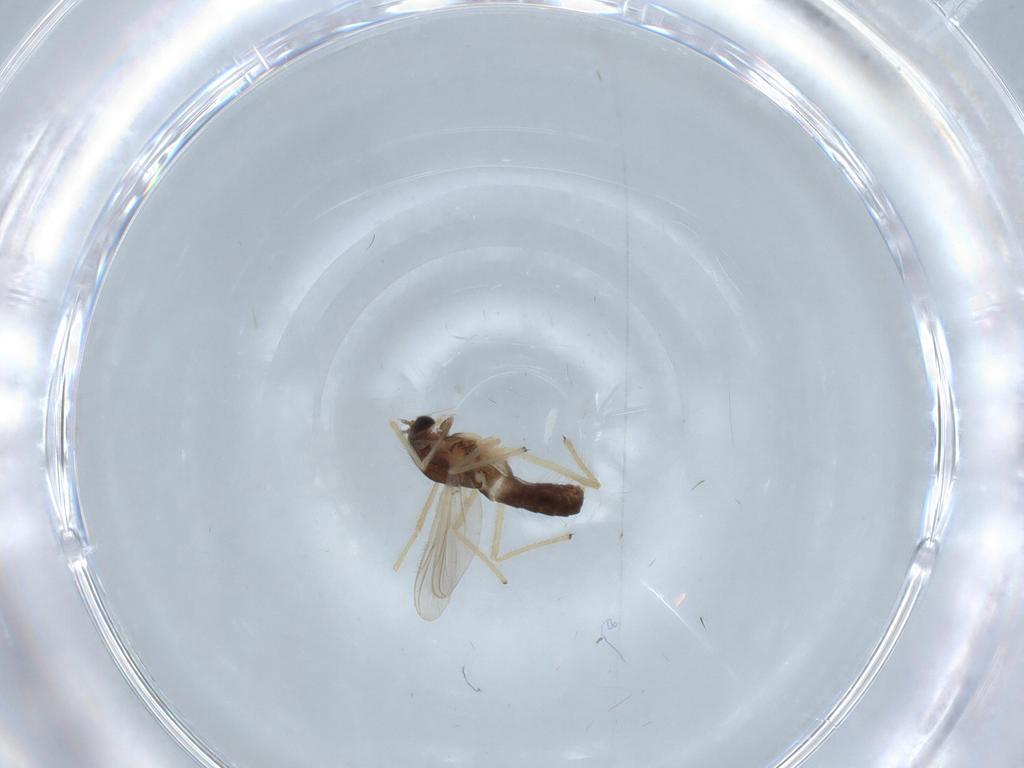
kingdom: Animalia
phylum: Arthropoda
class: Insecta
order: Diptera
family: Chironomidae
